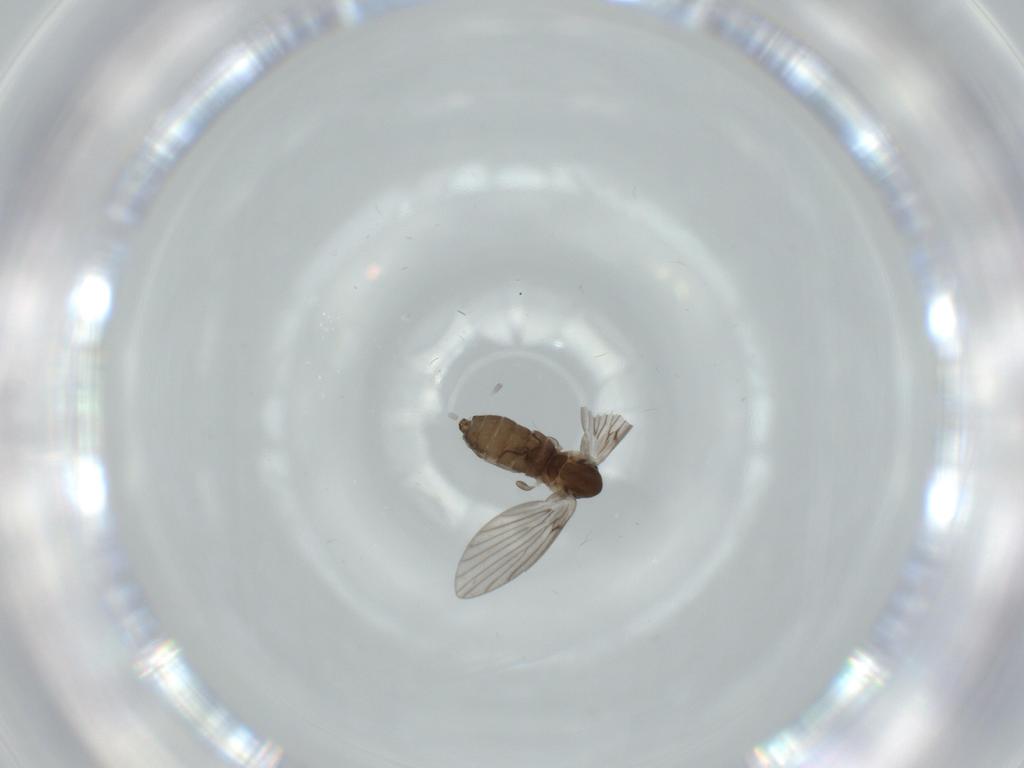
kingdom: Animalia
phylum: Arthropoda
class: Insecta
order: Diptera
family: Psychodidae
